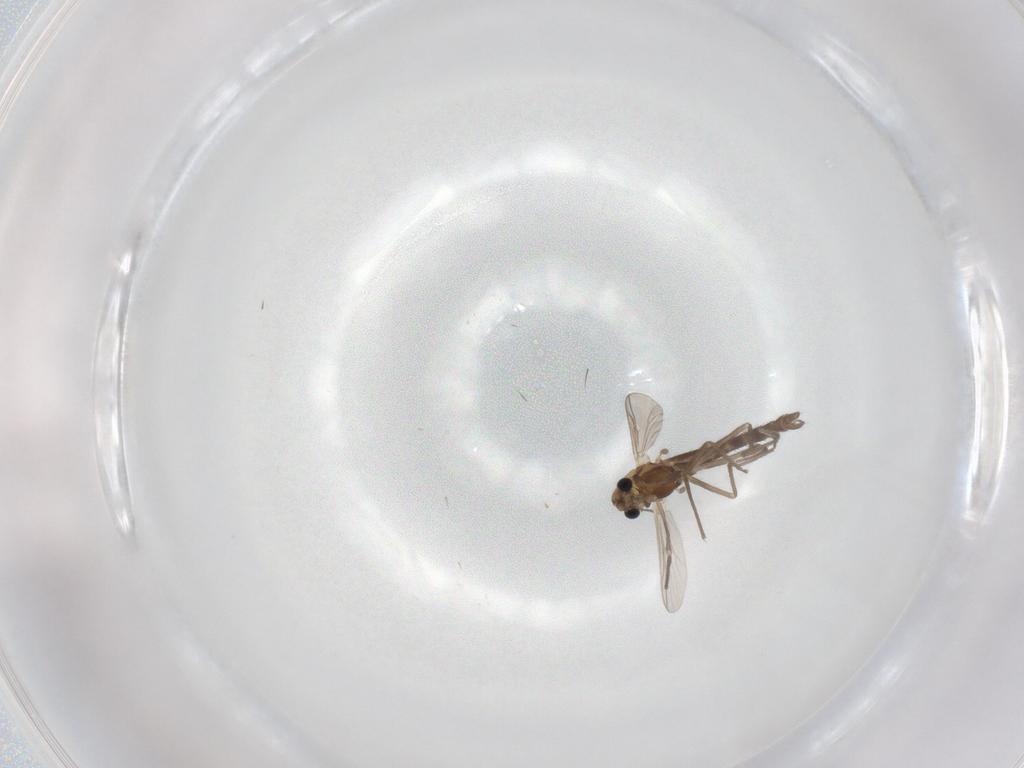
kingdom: Animalia
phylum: Arthropoda
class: Insecta
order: Diptera
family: Chironomidae
